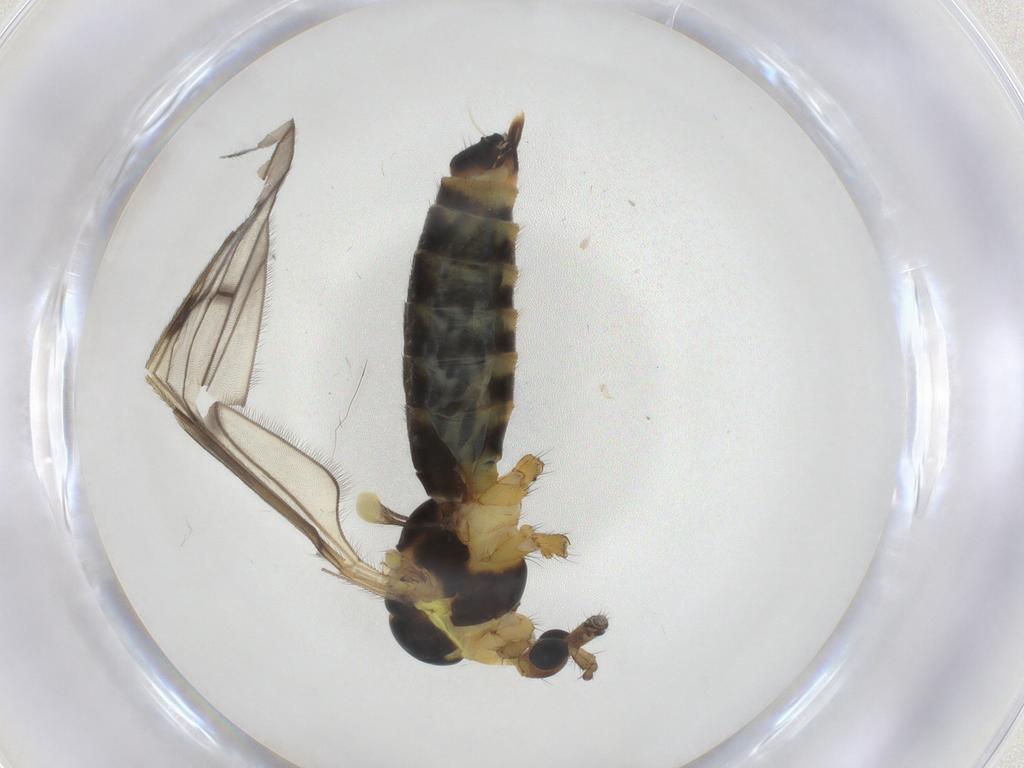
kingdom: Animalia
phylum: Arthropoda
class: Insecta
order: Diptera
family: Limoniidae
